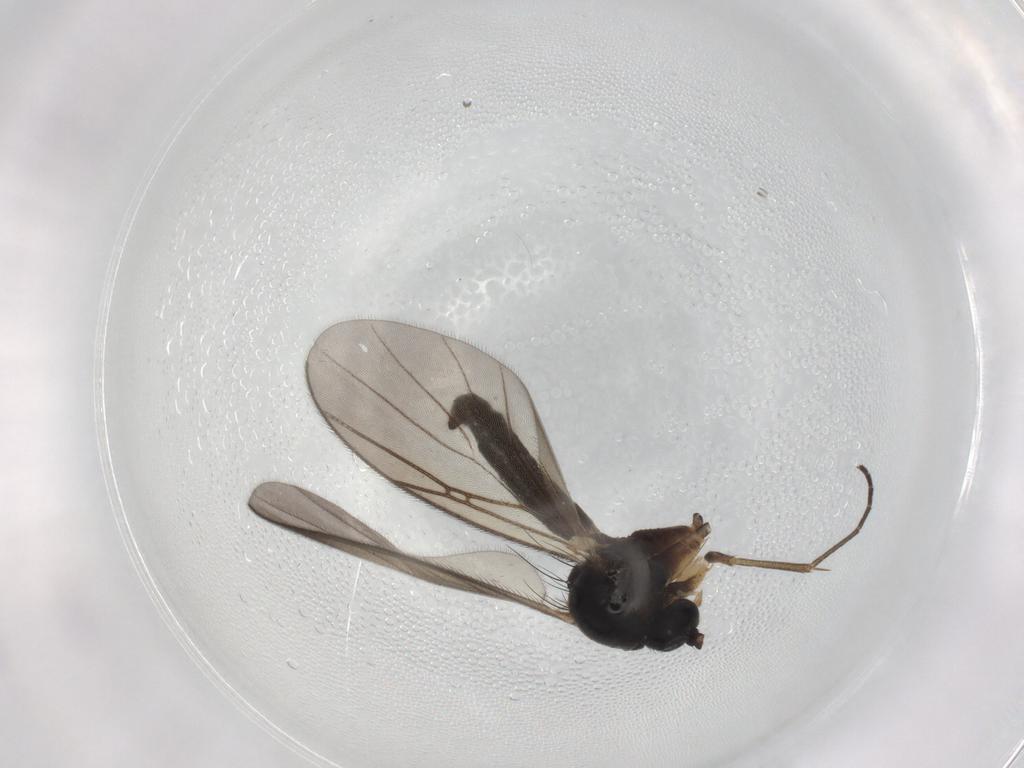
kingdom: Animalia
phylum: Arthropoda
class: Insecta
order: Diptera
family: Mycetophilidae
